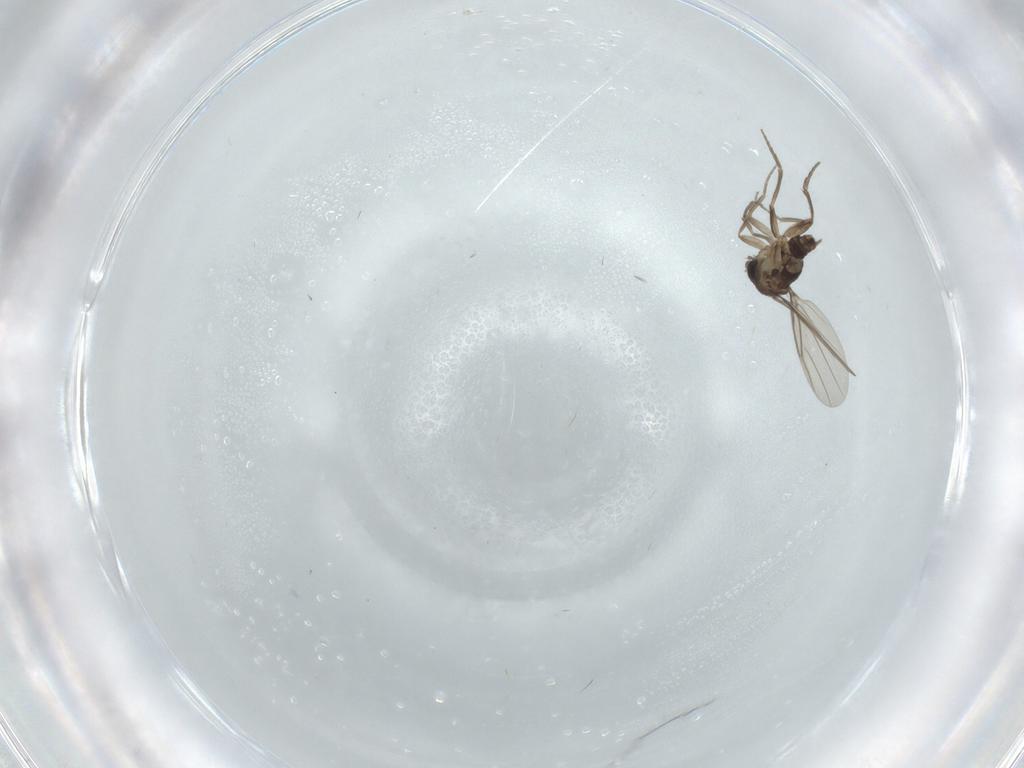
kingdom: Animalia
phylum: Arthropoda
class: Insecta
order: Diptera
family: Phoridae
